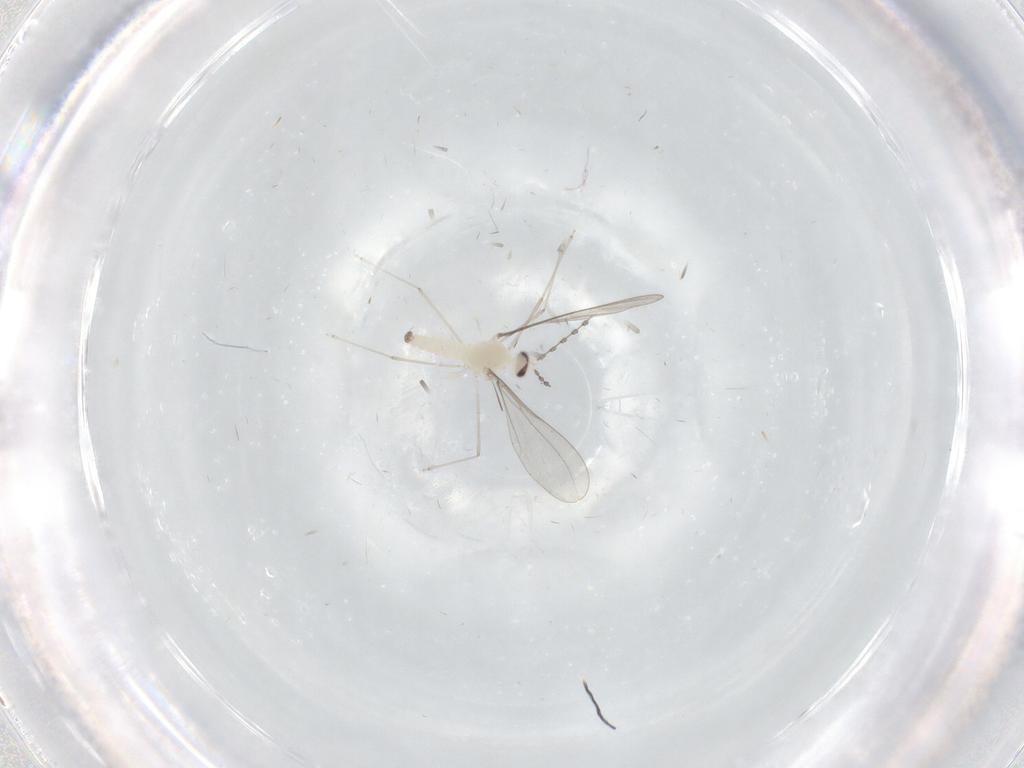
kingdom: Animalia
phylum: Arthropoda
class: Insecta
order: Diptera
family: Cecidomyiidae
